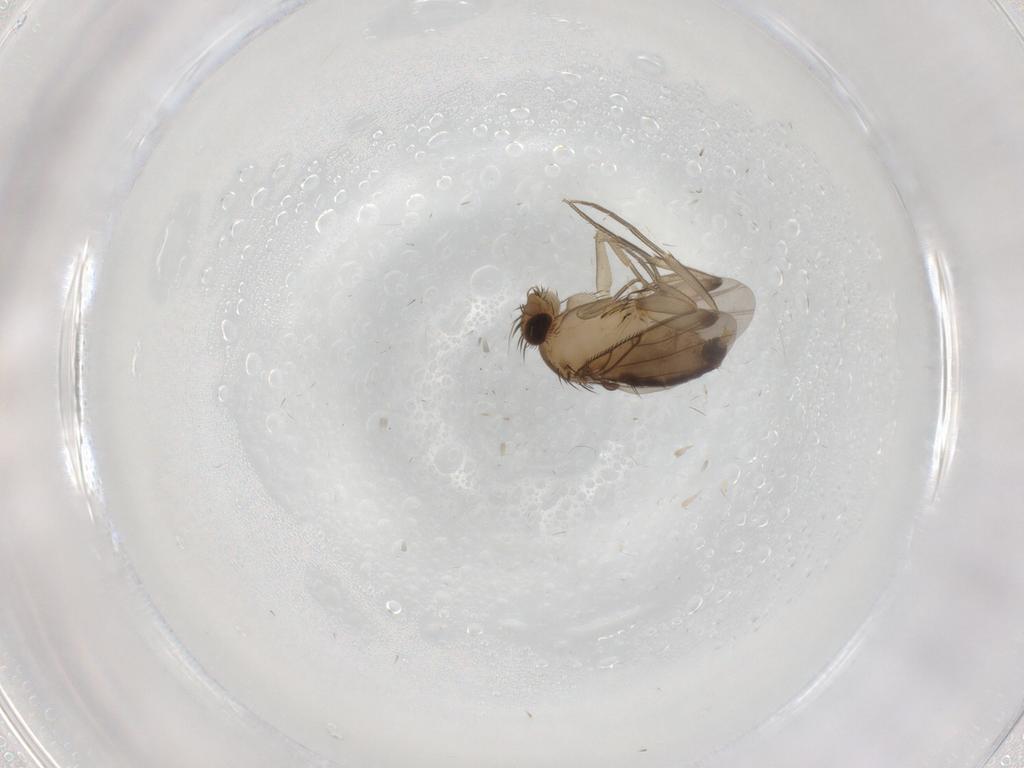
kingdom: Animalia
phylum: Arthropoda
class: Insecta
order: Diptera
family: Phoridae
